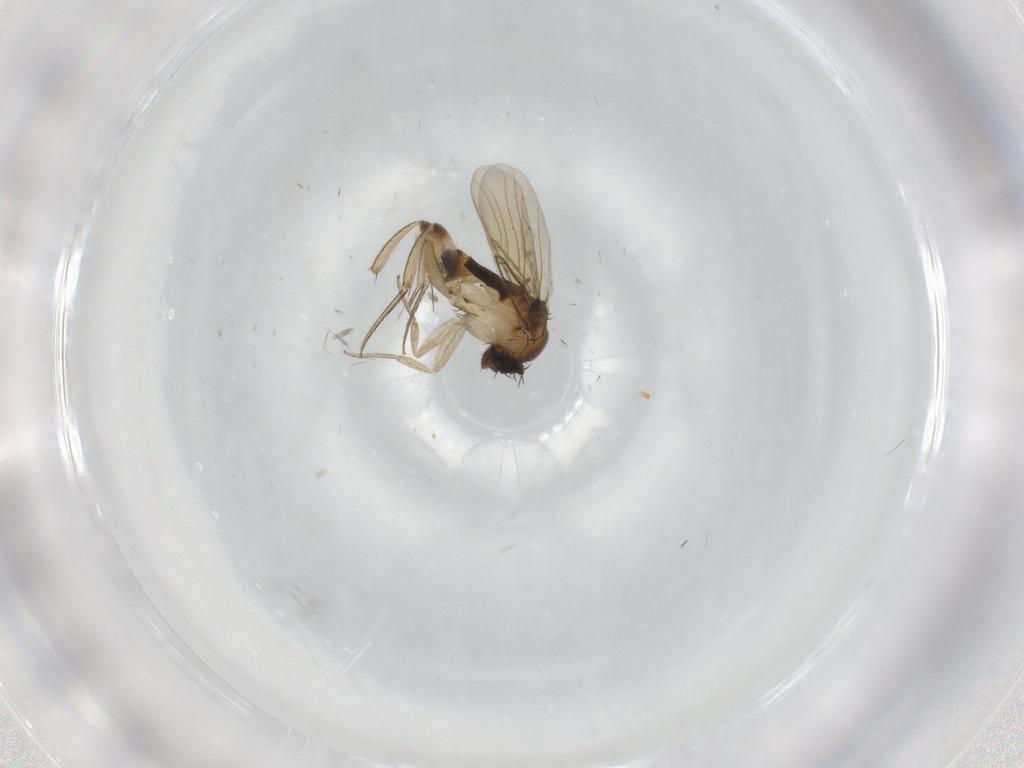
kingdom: Animalia
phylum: Arthropoda
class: Insecta
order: Diptera
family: Phoridae
